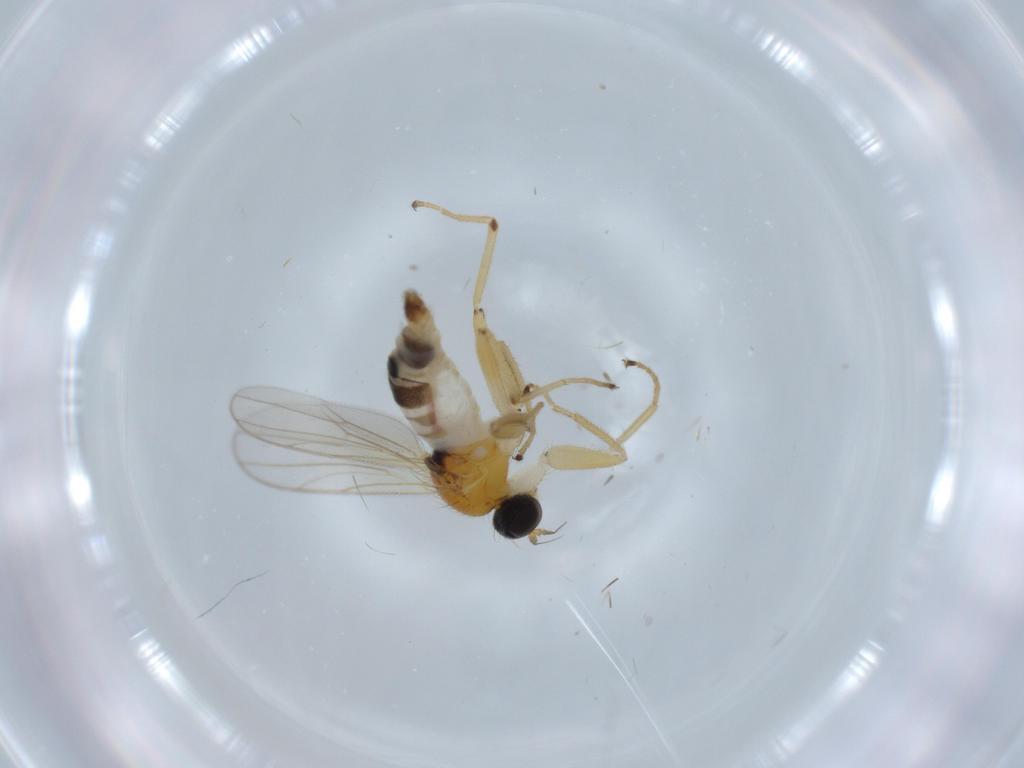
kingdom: Animalia
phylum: Arthropoda
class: Insecta
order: Diptera
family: Hybotidae
